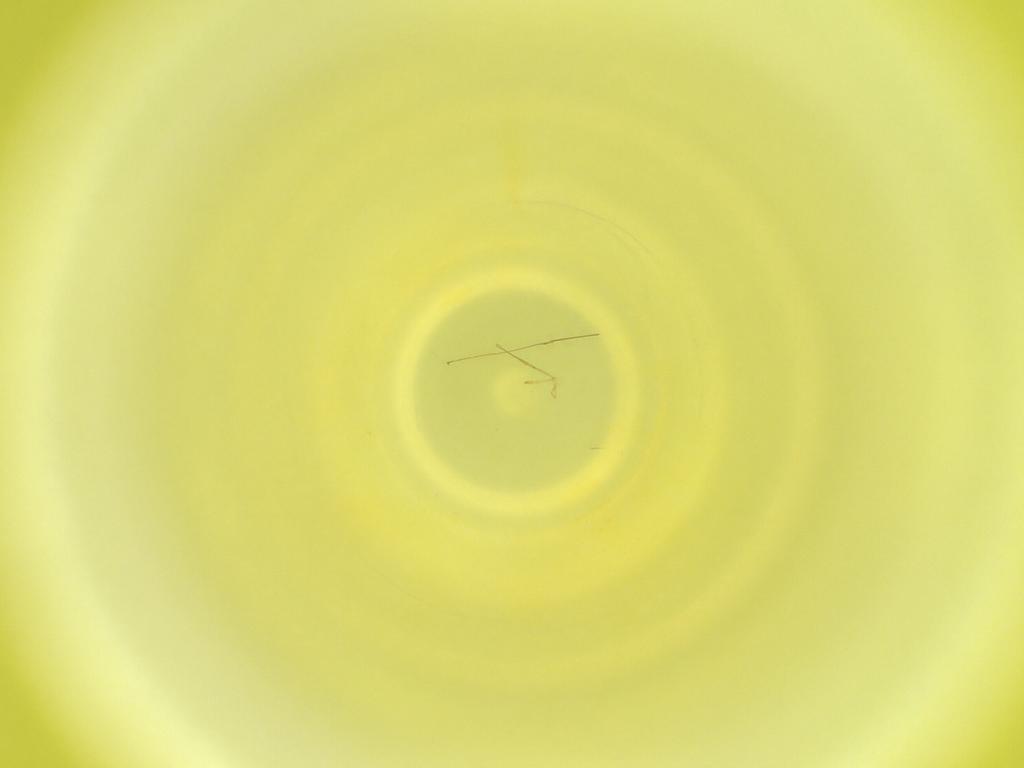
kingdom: Animalia
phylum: Arthropoda
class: Insecta
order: Diptera
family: Cecidomyiidae
